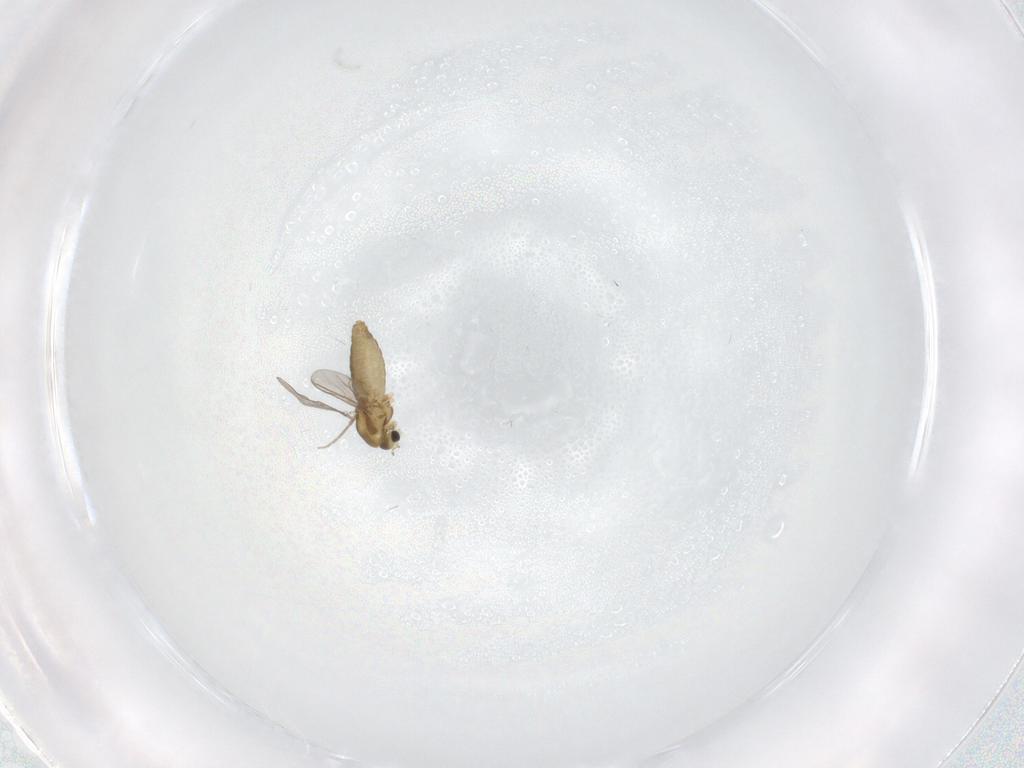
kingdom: Animalia
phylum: Arthropoda
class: Insecta
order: Diptera
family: Chironomidae
